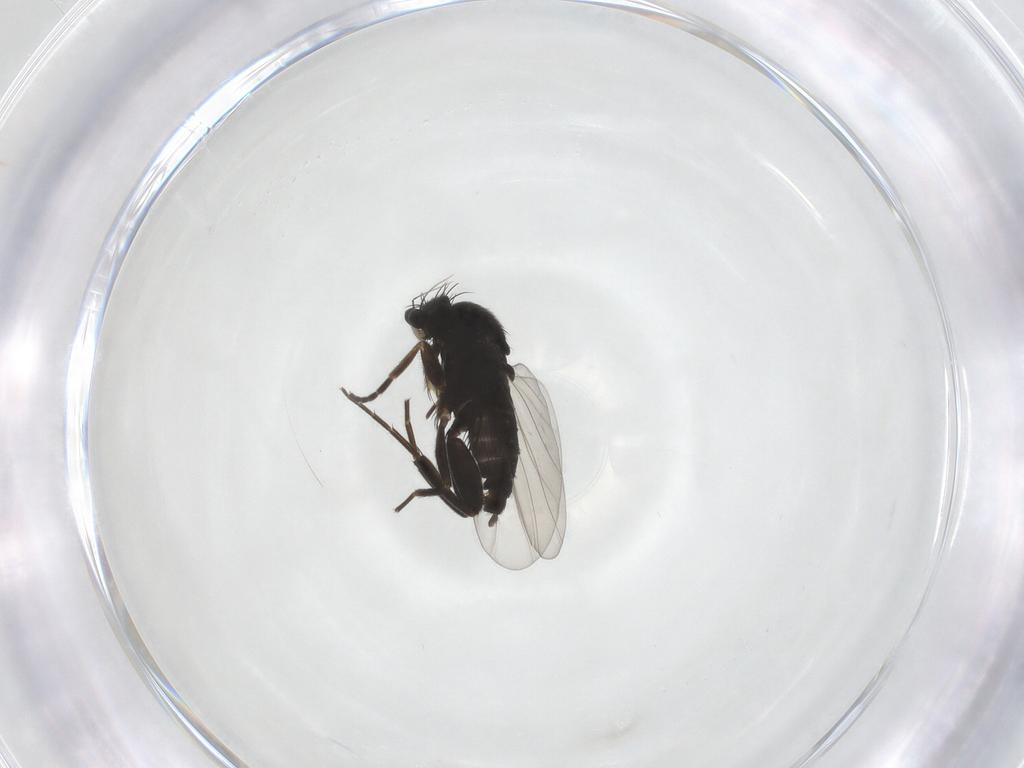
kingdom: Animalia
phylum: Arthropoda
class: Insecta
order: Diptera
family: Phoridae
